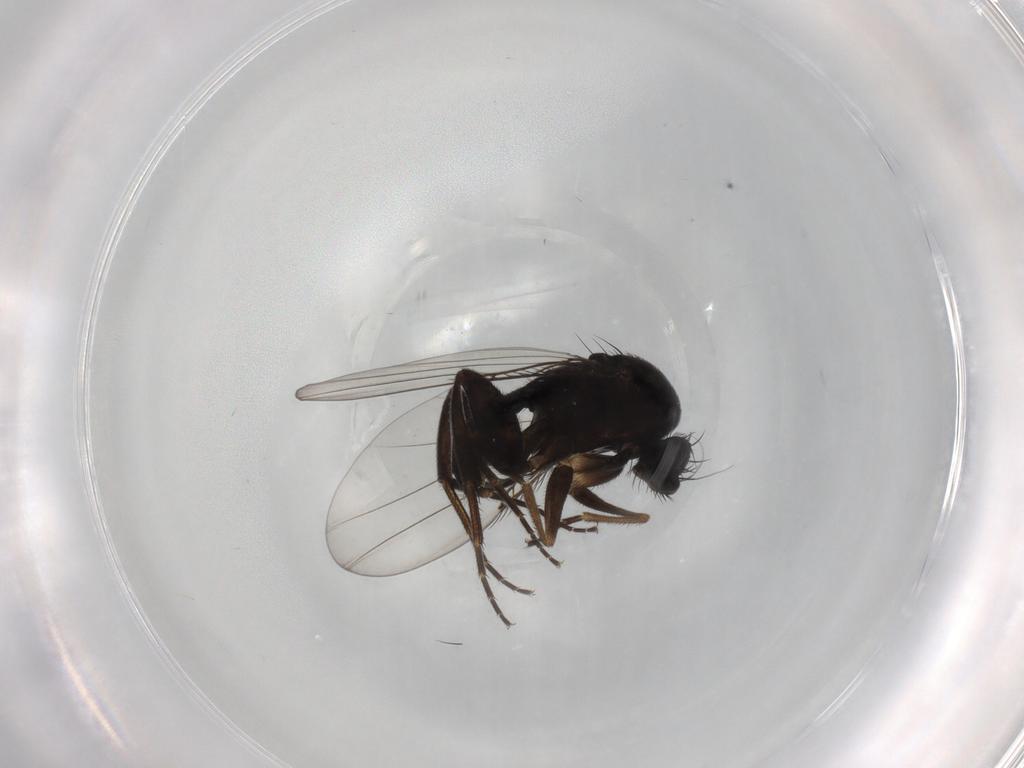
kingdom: Animalia
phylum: Arthropoda
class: Insecta
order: Diptera
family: Phoridae
